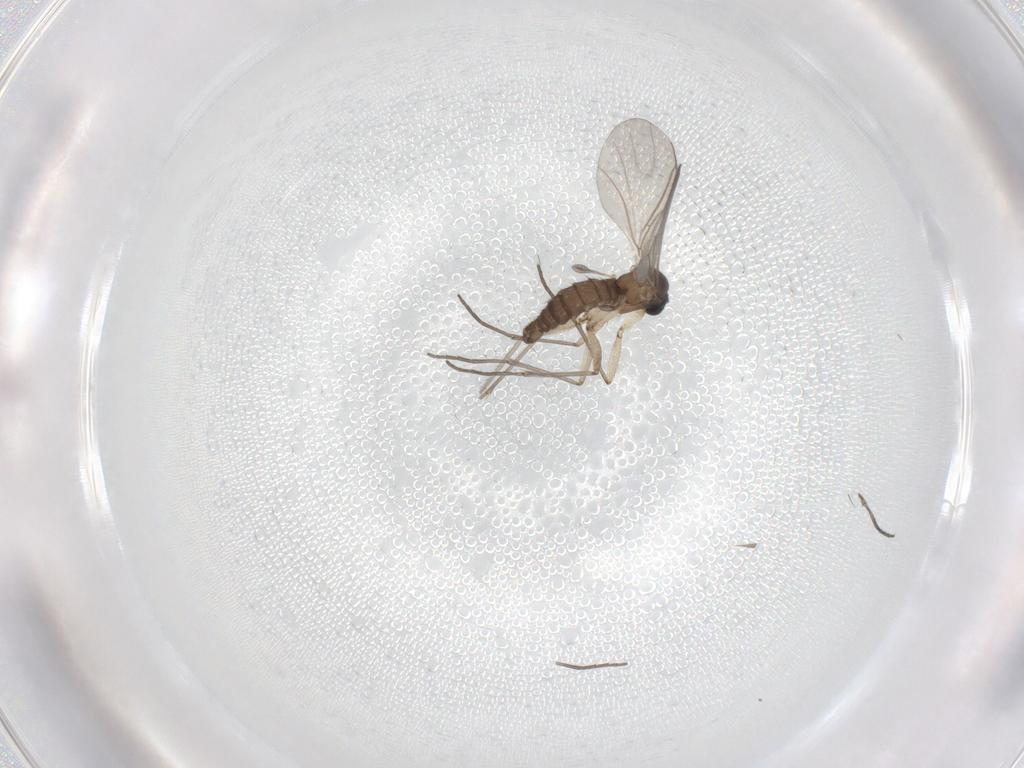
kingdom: Animalia
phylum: Arthropoda
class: Insecta
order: Diptera
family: Sciaridae
